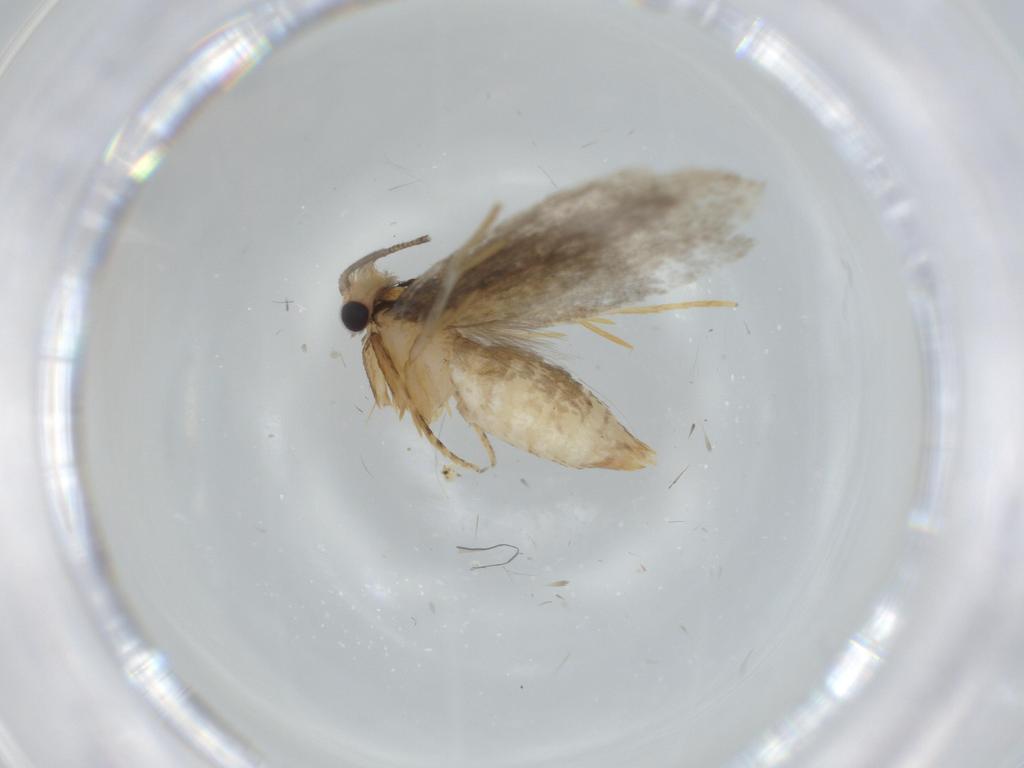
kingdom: Animalia
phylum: Arthropoda
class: Insecta
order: Lepidoptera
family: Tineidae
